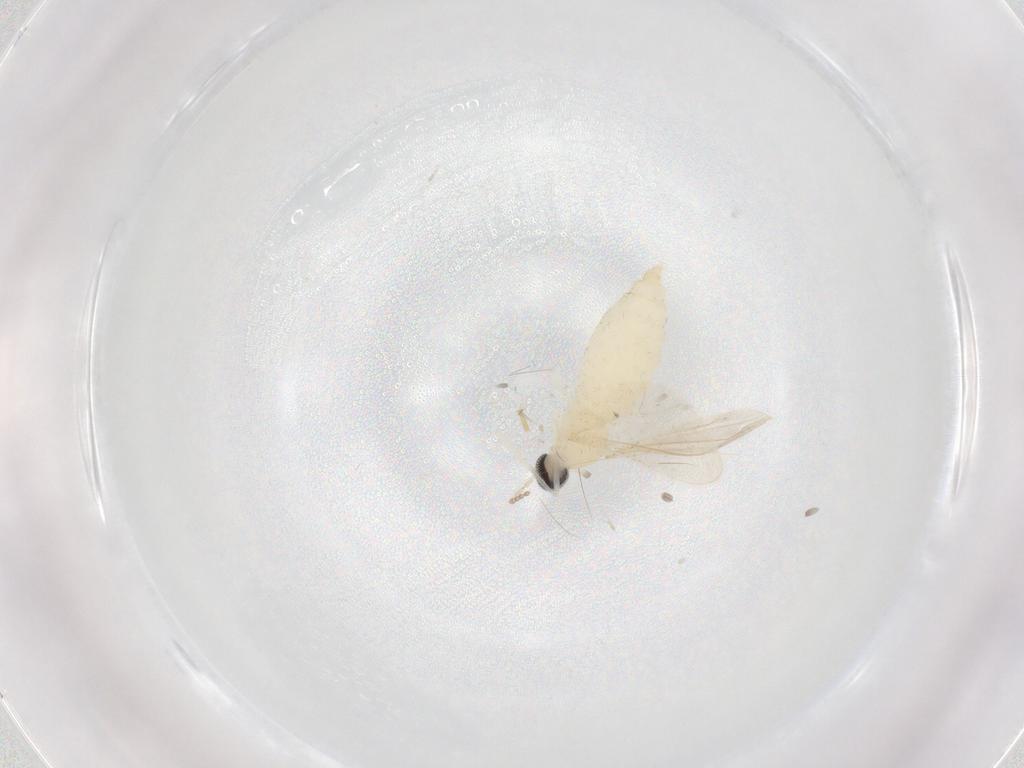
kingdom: Animalia
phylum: Arthropoda
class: Insecta
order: Diptera
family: Cecidomyiidae
